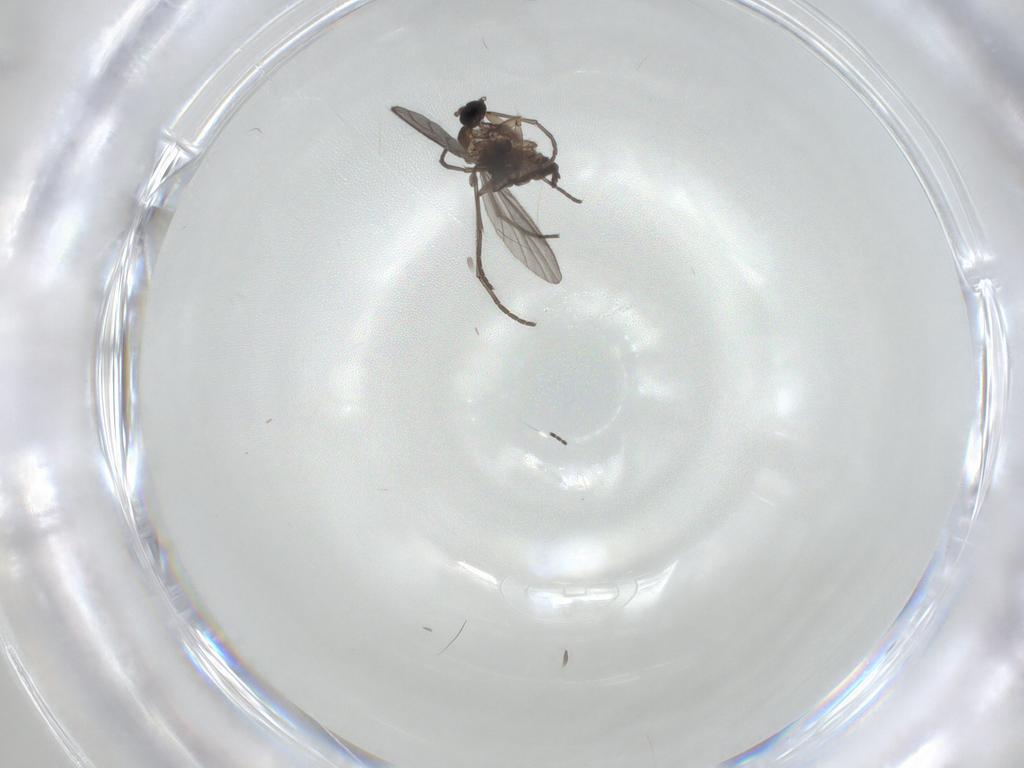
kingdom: Animalia
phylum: Arthropoda
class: Insecta
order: Diptera
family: Sciaridae
